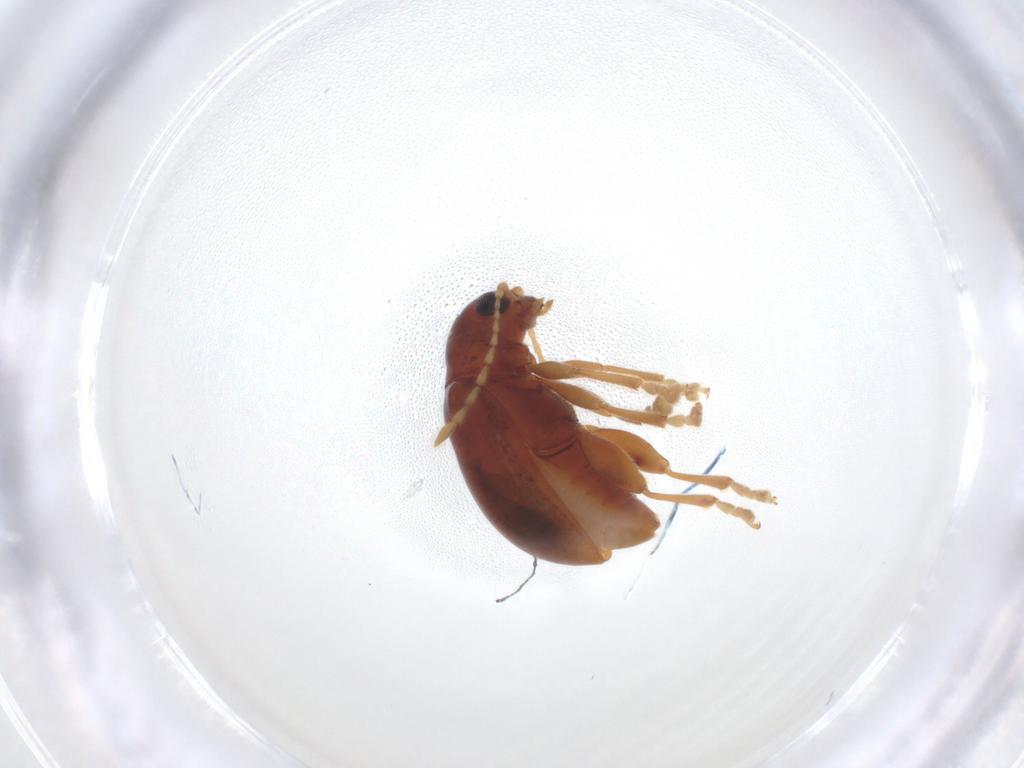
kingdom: Animalia
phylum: Arthropoda
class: Insecta
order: Coleoptera
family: Chrysomelidae
